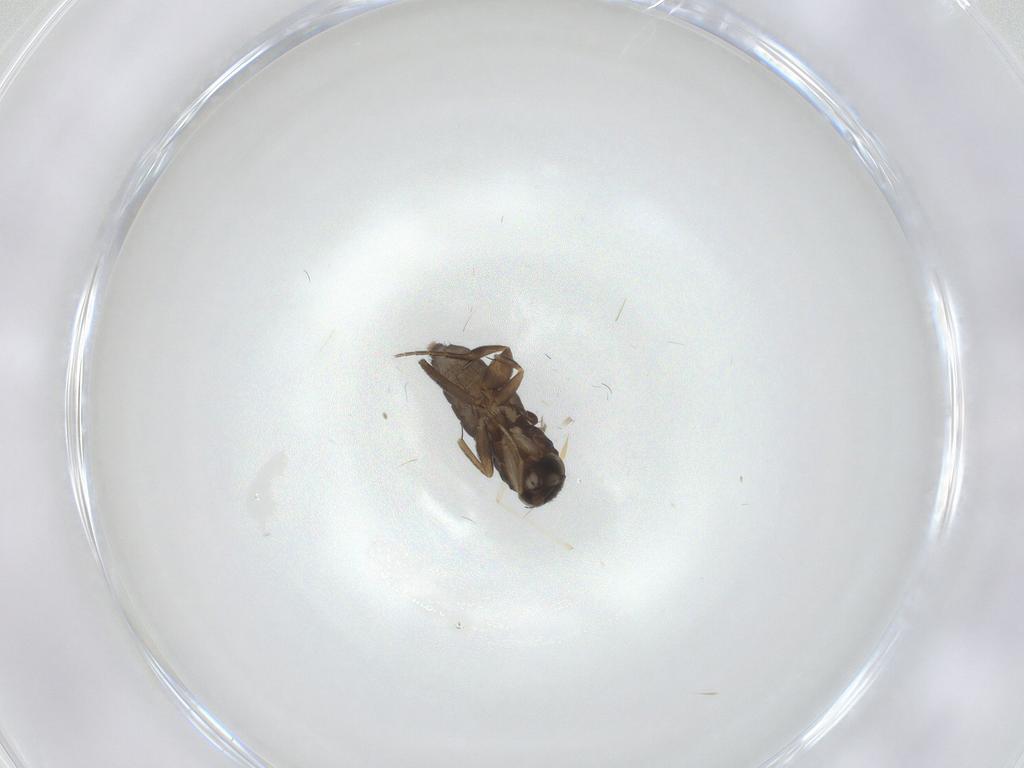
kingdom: Animalia
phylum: Arthropoda
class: Insecta
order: Diptera
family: Phoridae
